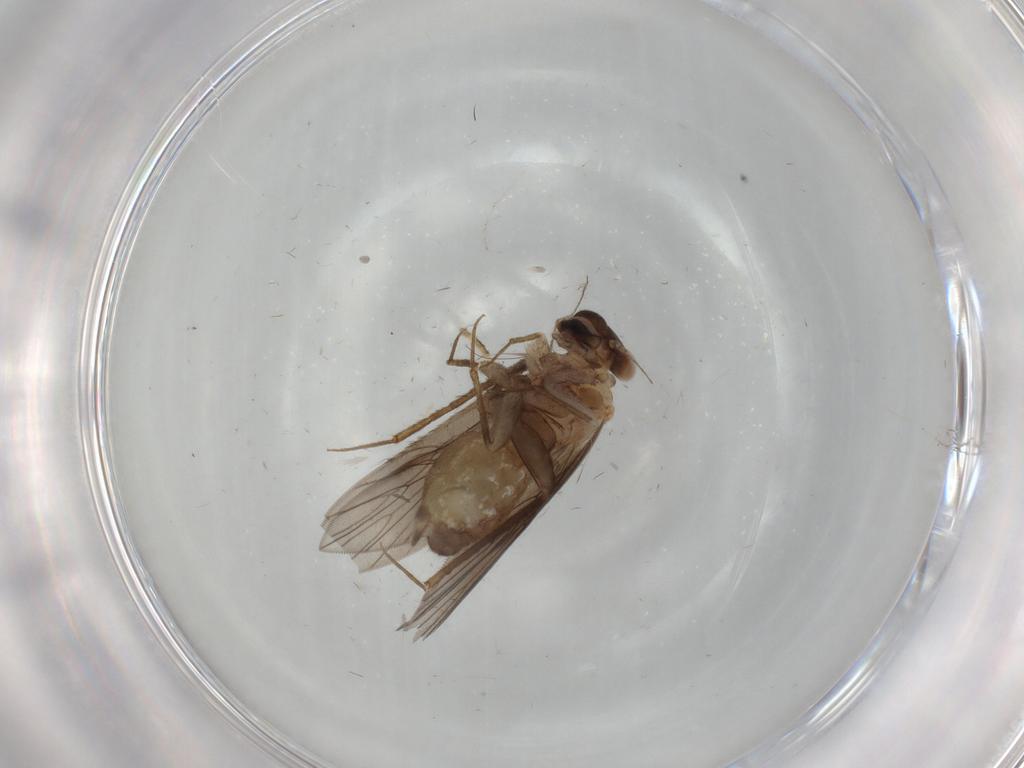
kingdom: Animalia
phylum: Arthropoda
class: Insecta
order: Psocodea
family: Lepidopsocidae
